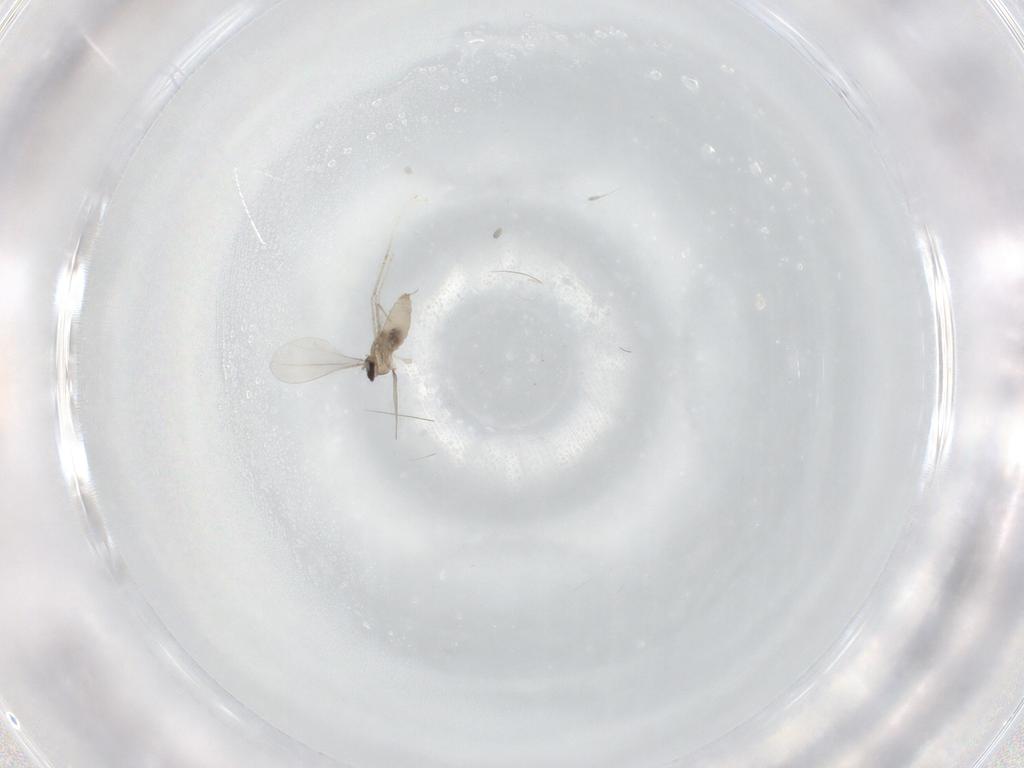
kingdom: Animalia
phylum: Arthropoda
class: Insecta
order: Diptera
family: Cecidomyiidae
